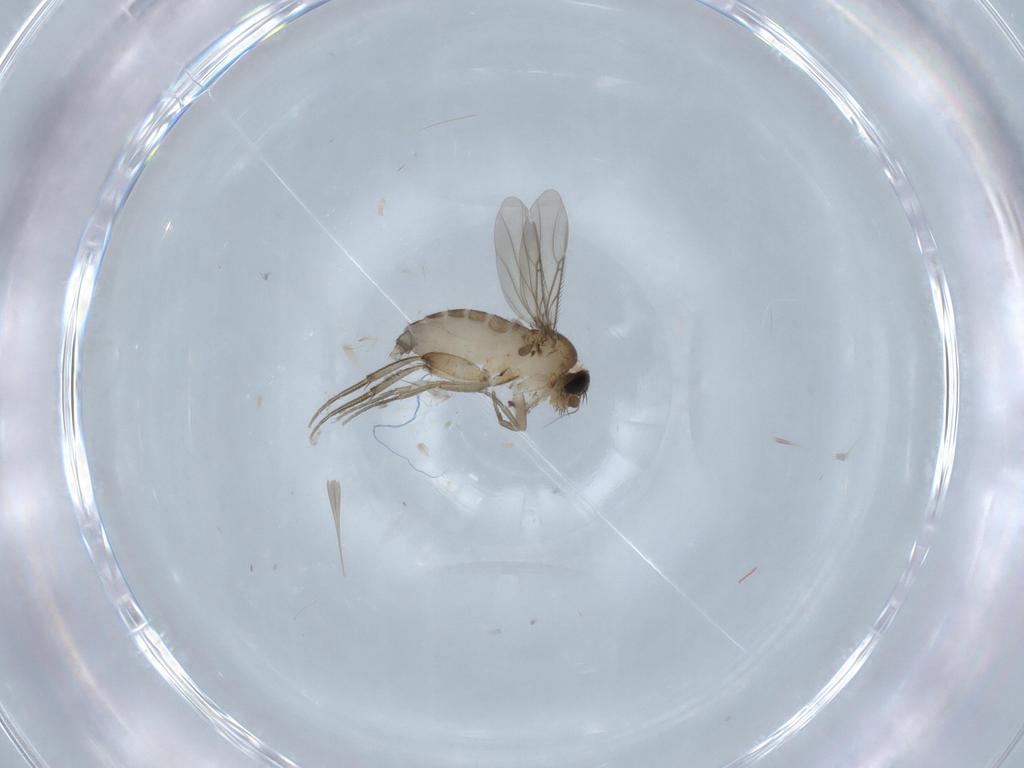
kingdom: Animalia
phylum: Arthropoda
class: Insecta
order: Diptera
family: Phoridae
